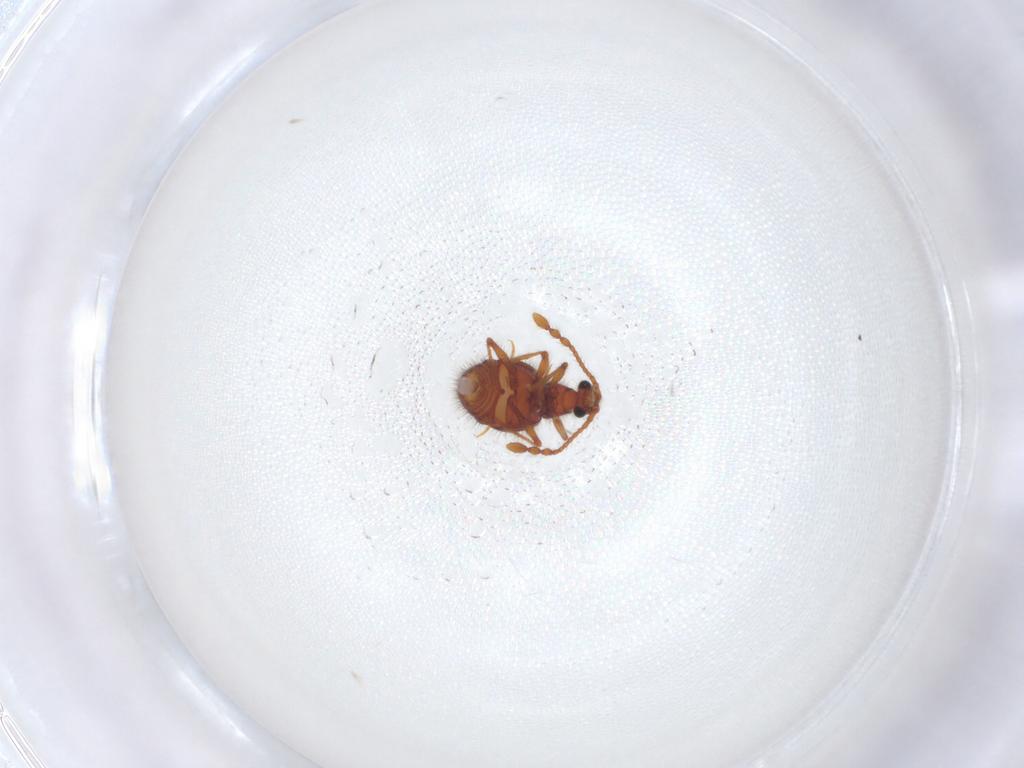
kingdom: Animalia
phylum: Arthropoda
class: Insecta
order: Coleoptera
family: Staphylinidae
